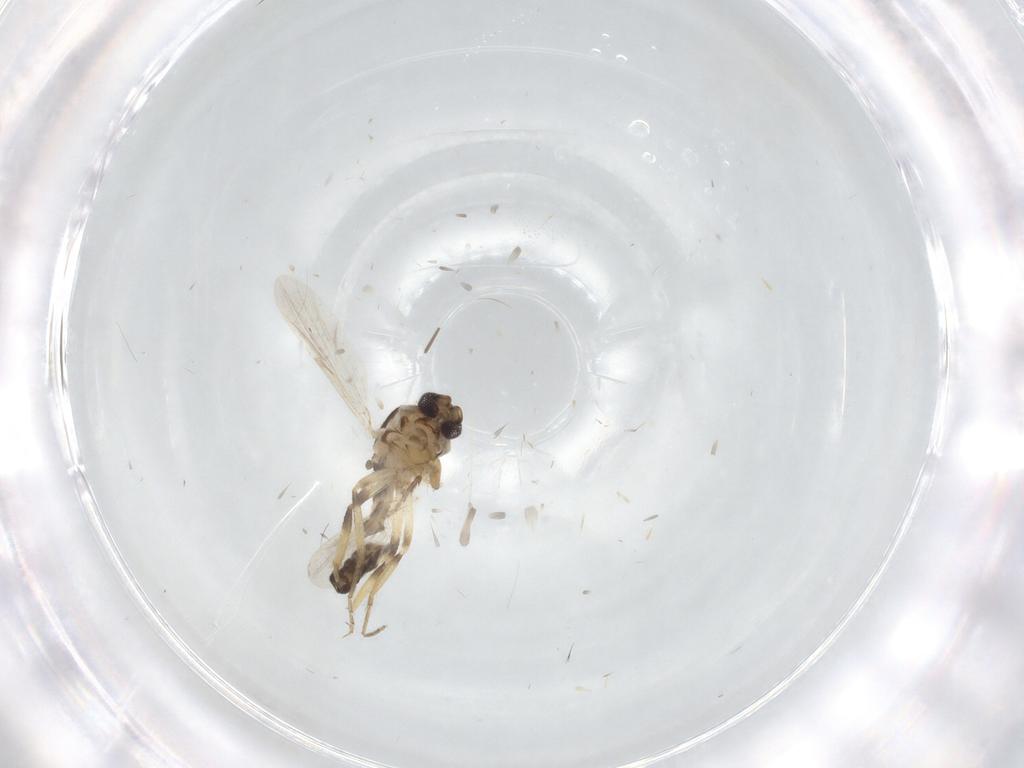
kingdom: Animalia
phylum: Arthropoda
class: Insecta
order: Diptera
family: Ceratopogonidae
